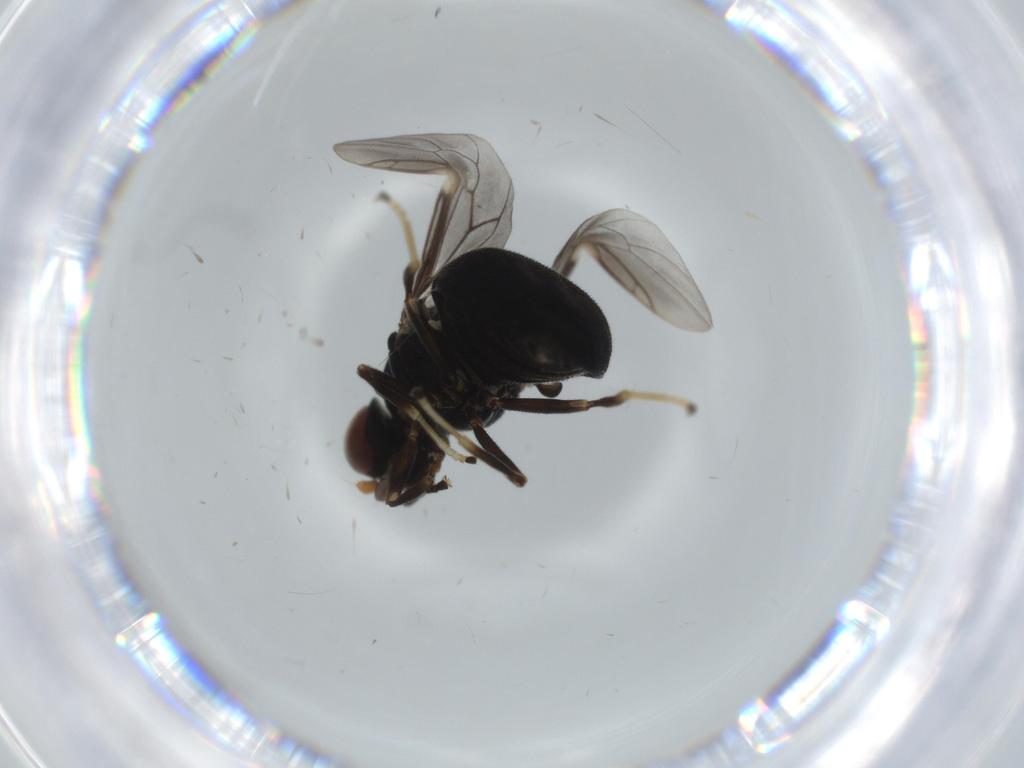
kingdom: Animalia
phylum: Arthropoda
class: Insecta
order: Diptera
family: Stratiomyidae
